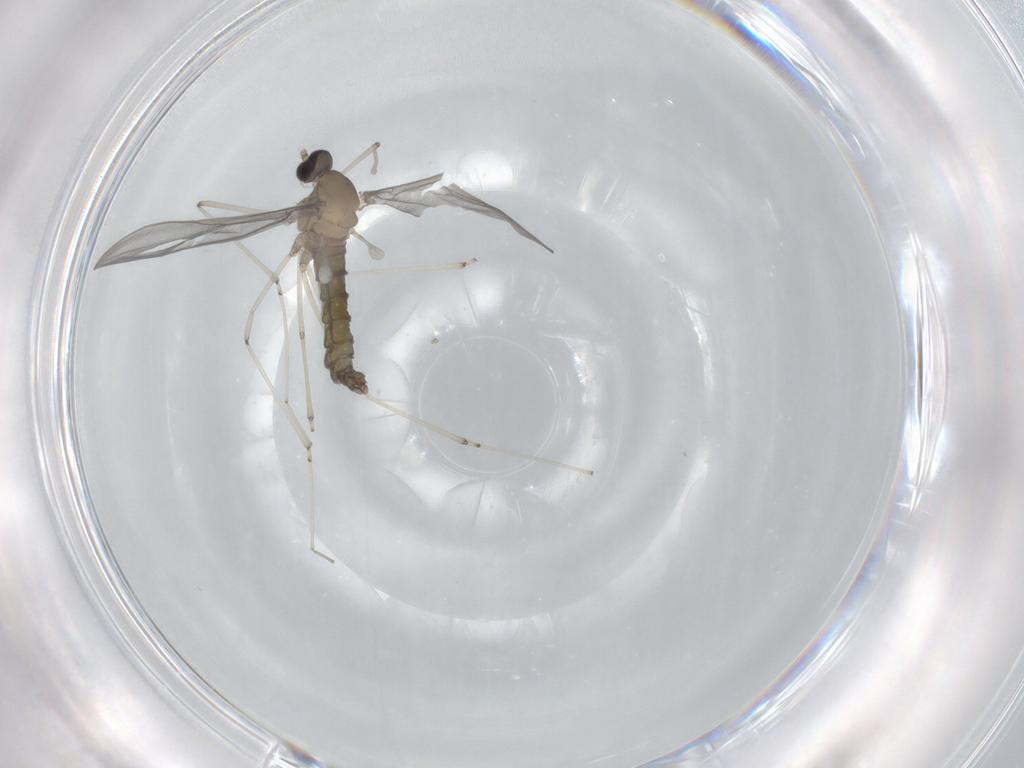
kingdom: Animalia
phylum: Arthropoda
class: Insecta
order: Diptera
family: Cecidomyiidae
